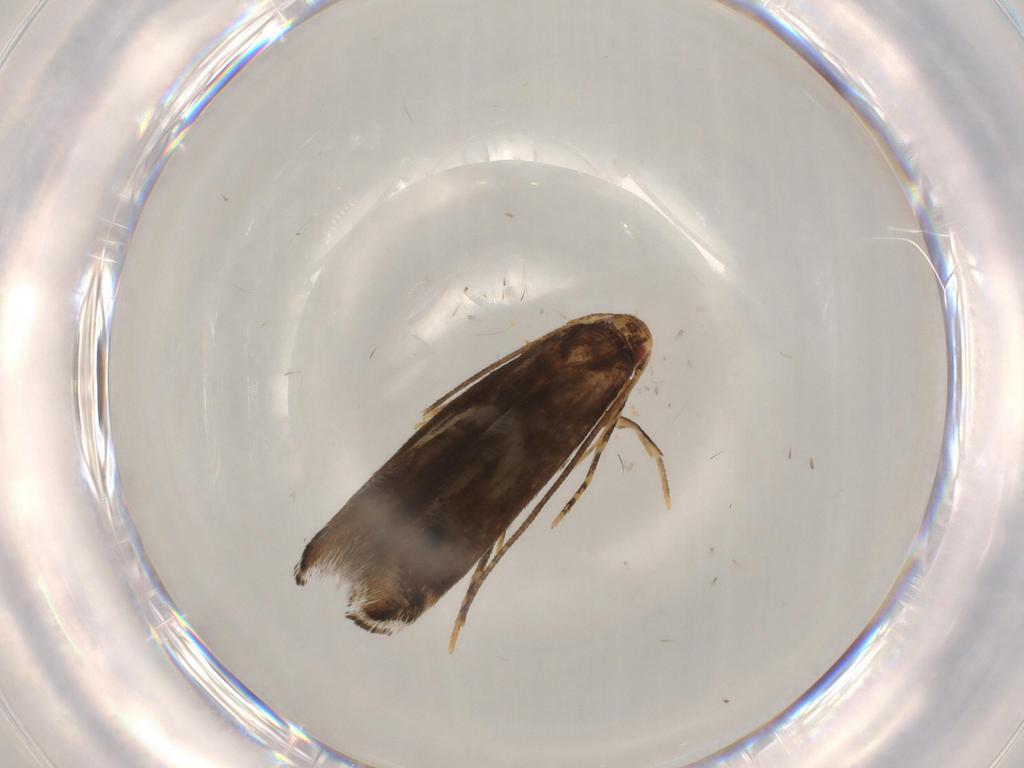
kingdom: Animalia
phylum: Arthropoda
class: Insecta
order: Lepidoptera
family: Momphidae
